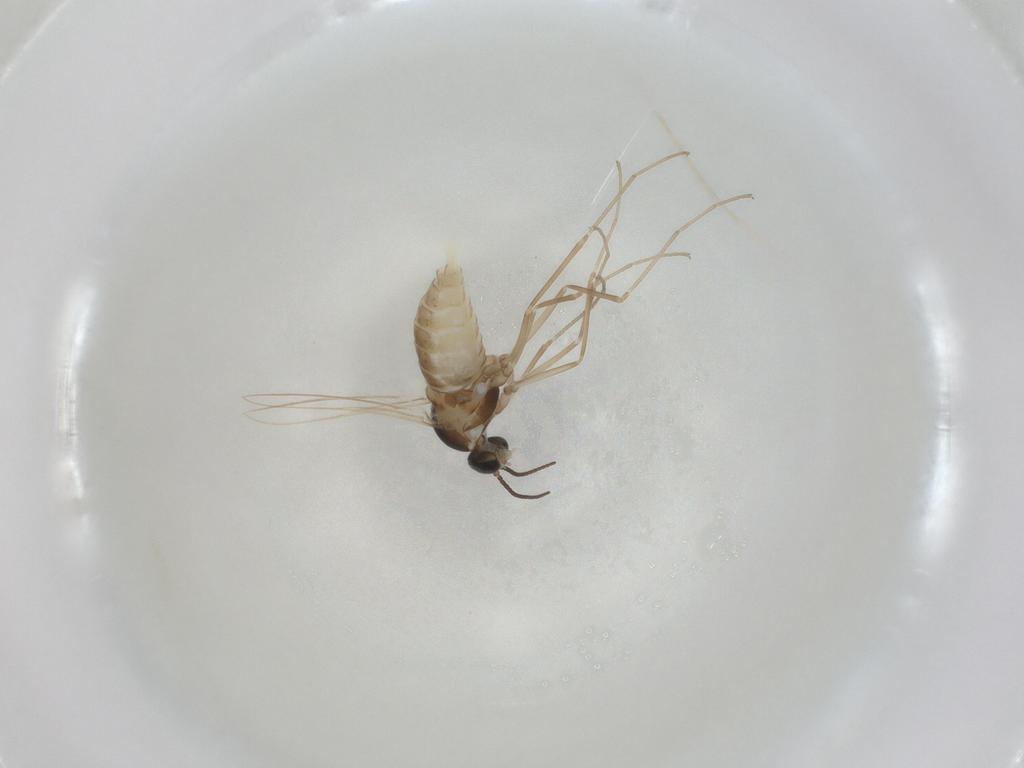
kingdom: Animalia
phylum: Arthropoda
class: Insecta
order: Diptera
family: Cecidomyiidae
